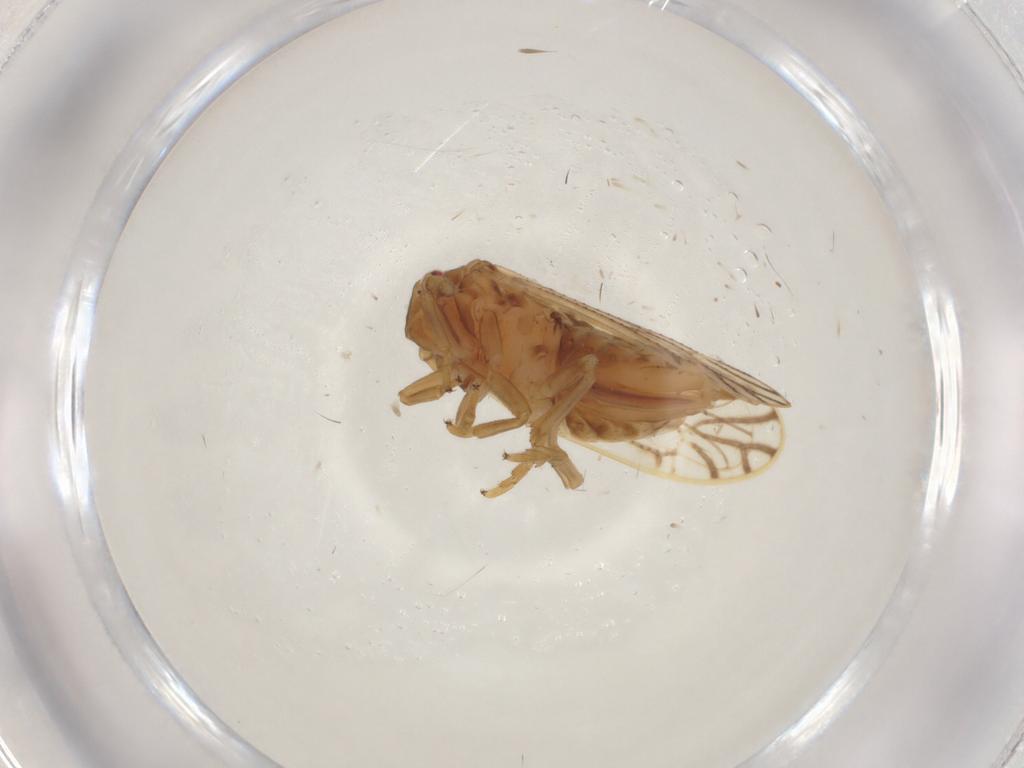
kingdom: Animalia
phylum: Arthropoda
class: Insecta
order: Hemiptera
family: Delphacidae
